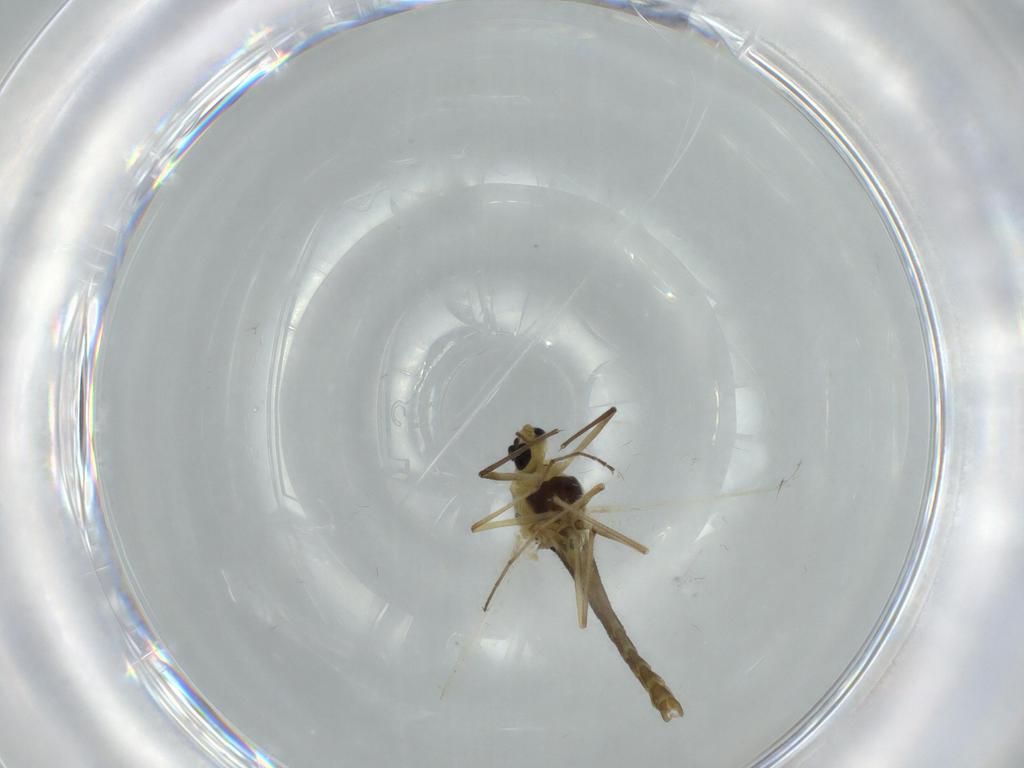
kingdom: Animalia
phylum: Arthropoda
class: Insecta
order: Diptera
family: Chironomidae
